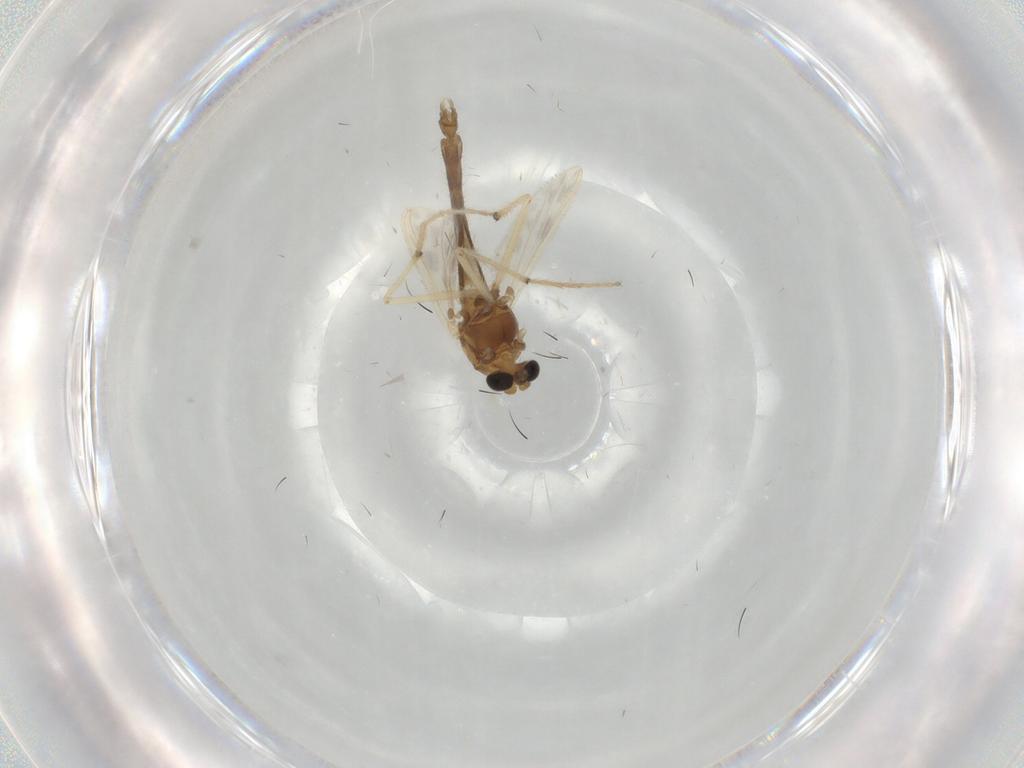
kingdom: Animalia
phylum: Arthropoda
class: Insecta
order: Diptera
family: Chironomidae
